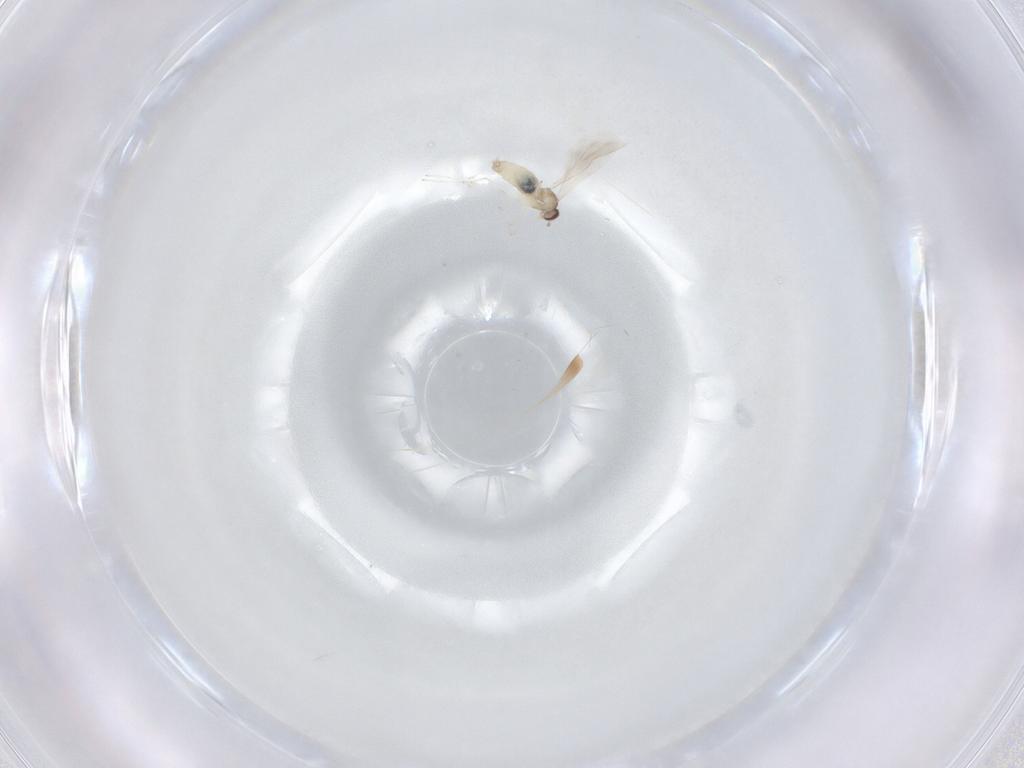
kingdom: Animalia
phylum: Arthropoda
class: Insecta
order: Diptera
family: Cecidomyiidae
